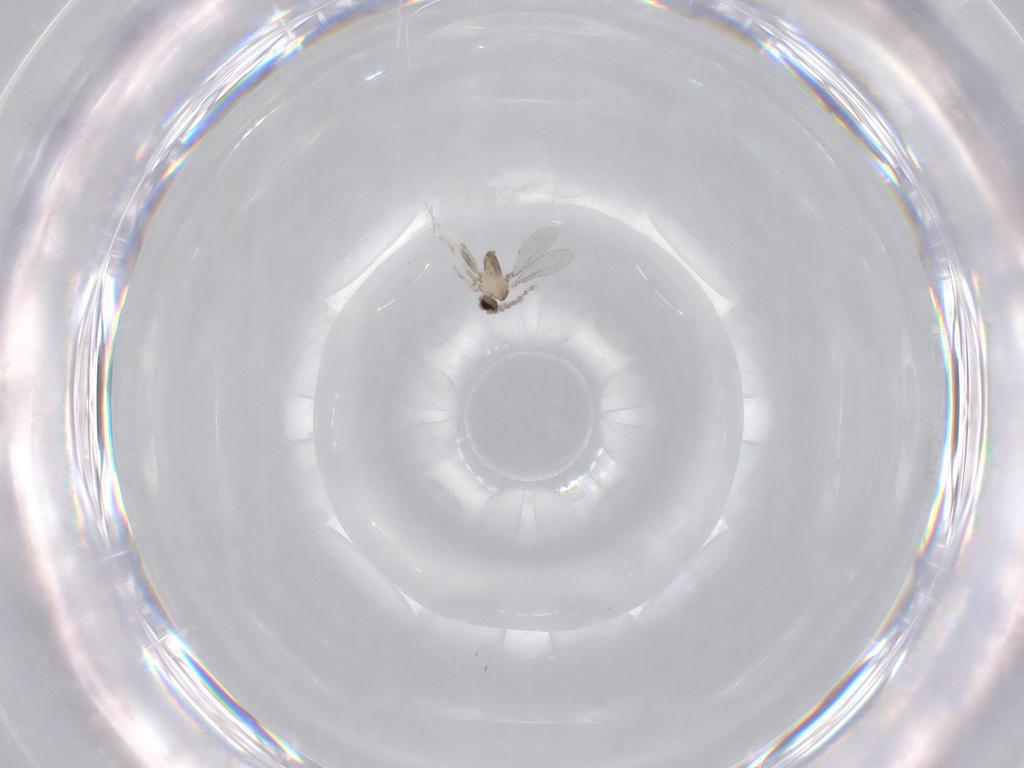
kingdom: Animalia
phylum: Arthropoda
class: Insecta
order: Diptera
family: Cecidomyiidae
